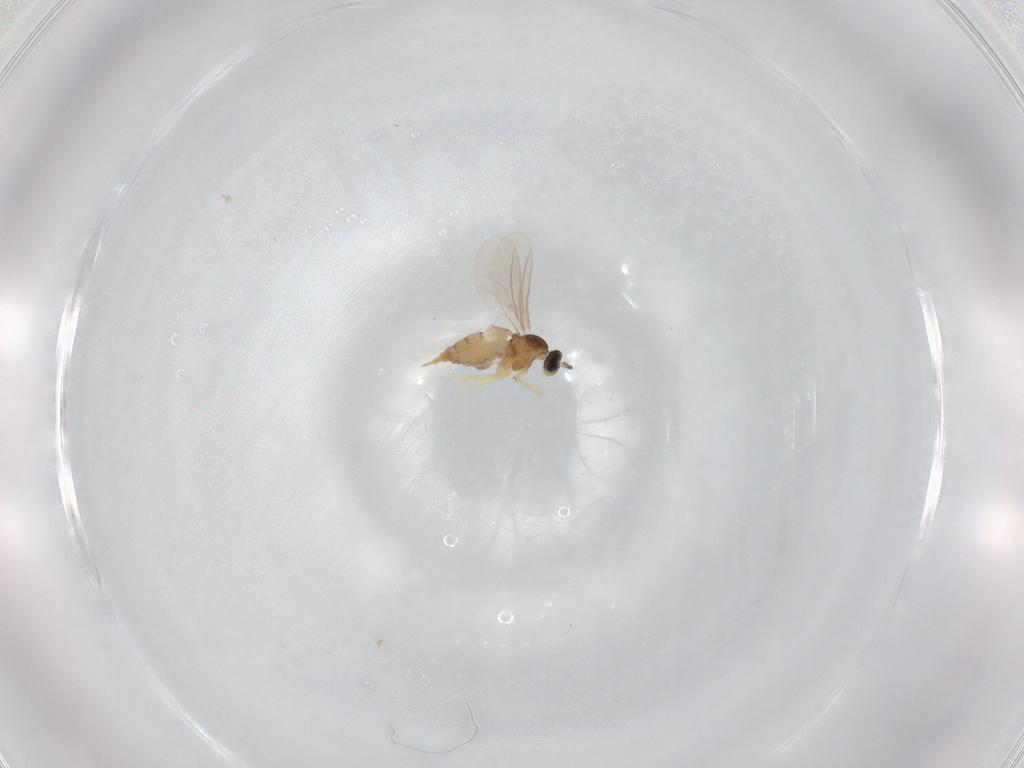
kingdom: Animalia
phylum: Arthropoda
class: Insecta
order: Diptera
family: Cecidomyiidae
